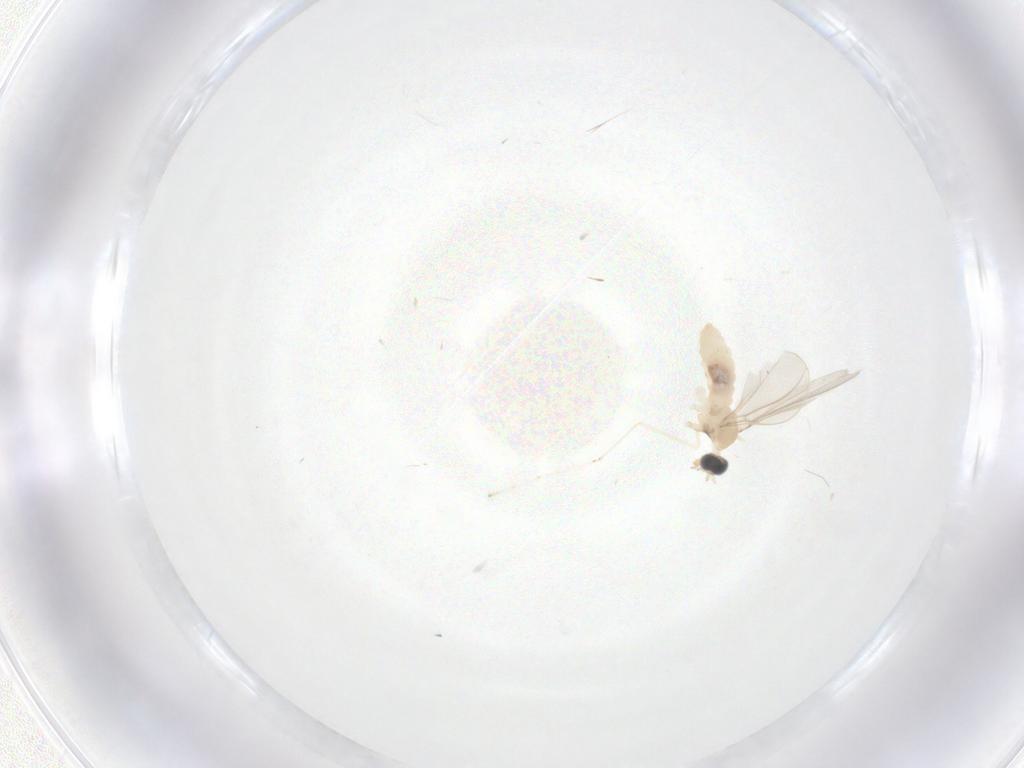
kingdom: Animalia
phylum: Arthropoda
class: Insecta
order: Diptera
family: Cecidomyiidae
